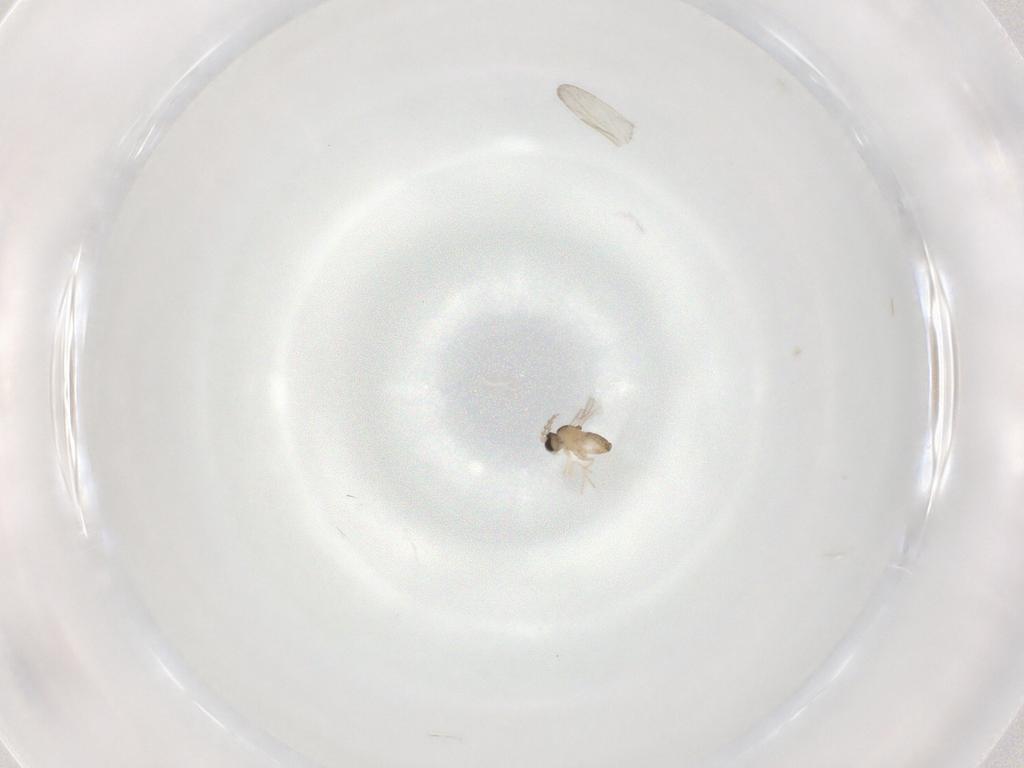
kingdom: Animalia
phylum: Arthropoda
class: Insecta
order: Diptera
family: Cecidomyiidae
